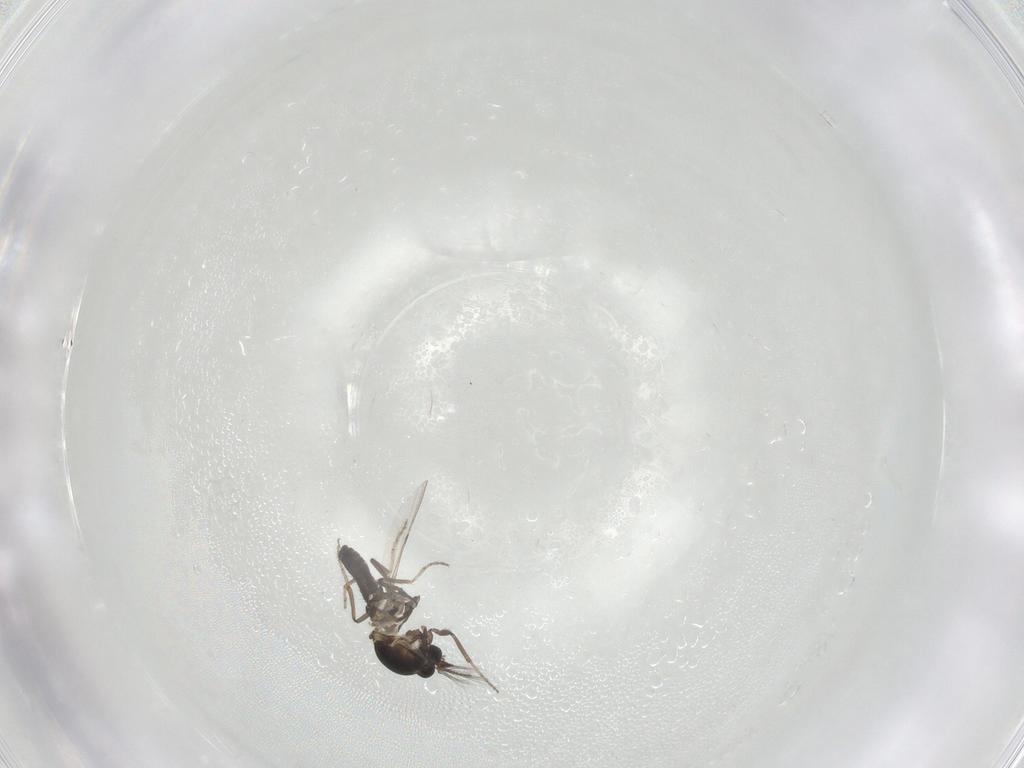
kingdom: Animalia
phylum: Arthropoda
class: Insecta
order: Diptera
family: Ceratopogonidae
